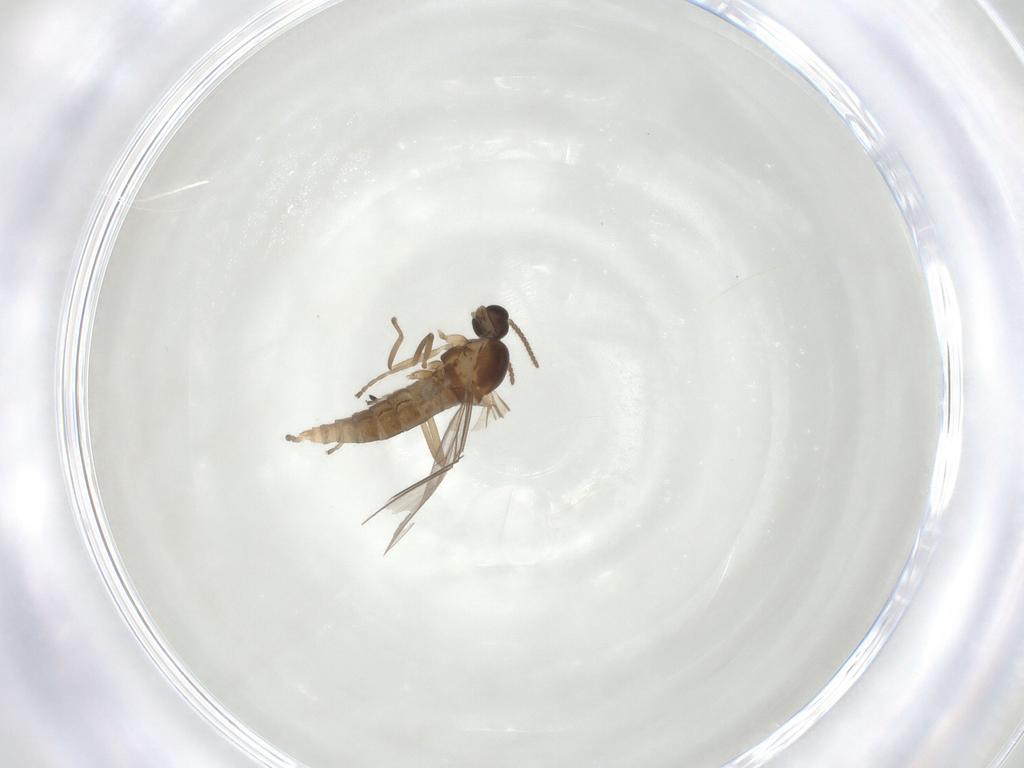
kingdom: Animalia
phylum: Arthropoda
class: Insecta
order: Diptera
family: Cecidomyiidae
